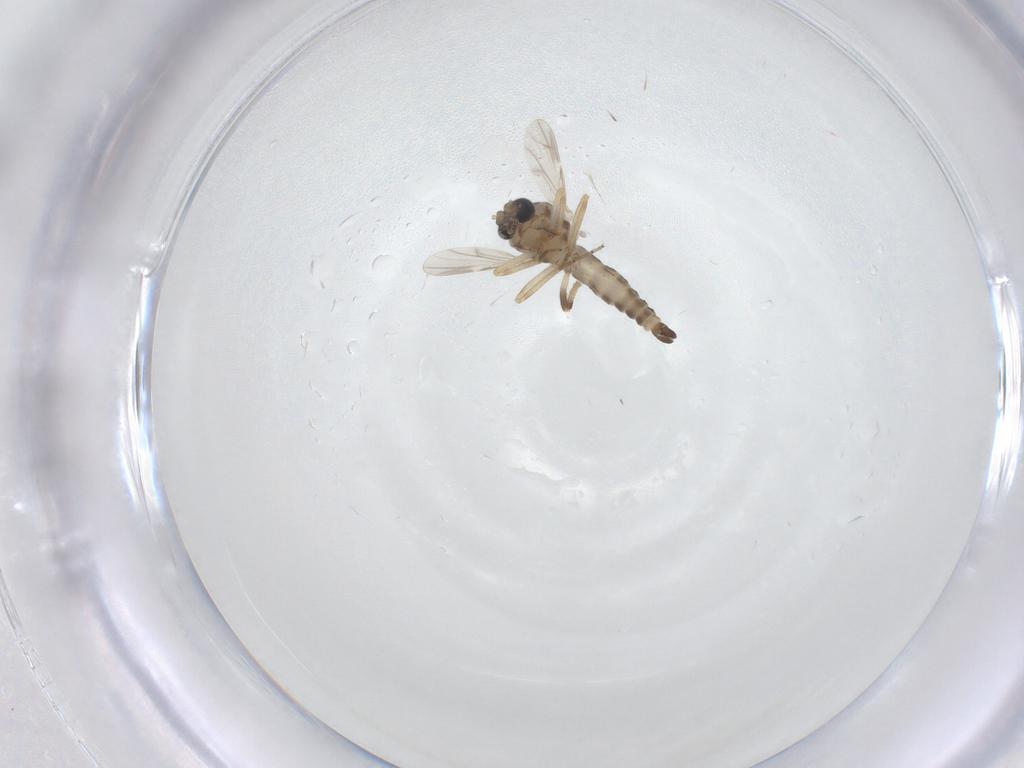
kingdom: Animalia
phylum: Arthropoda
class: Insecta
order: Diptera
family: Ceratopogonidae
